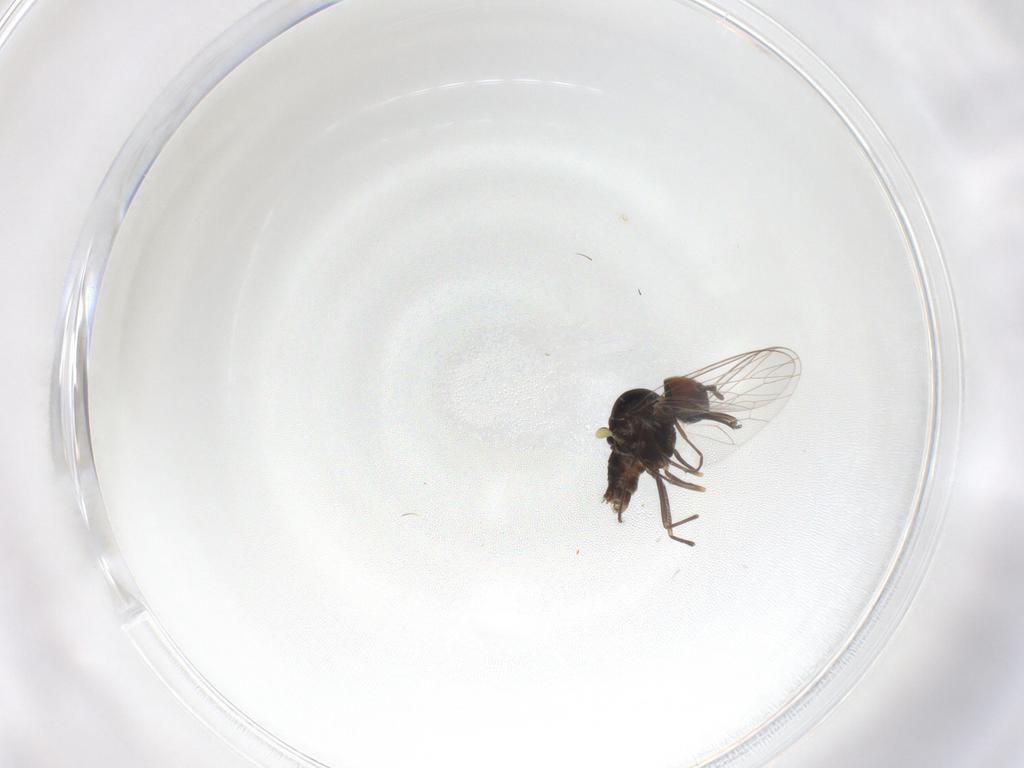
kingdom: Animalia
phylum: Arthropoda
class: Insecta
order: Diptera
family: Bombyliidae
